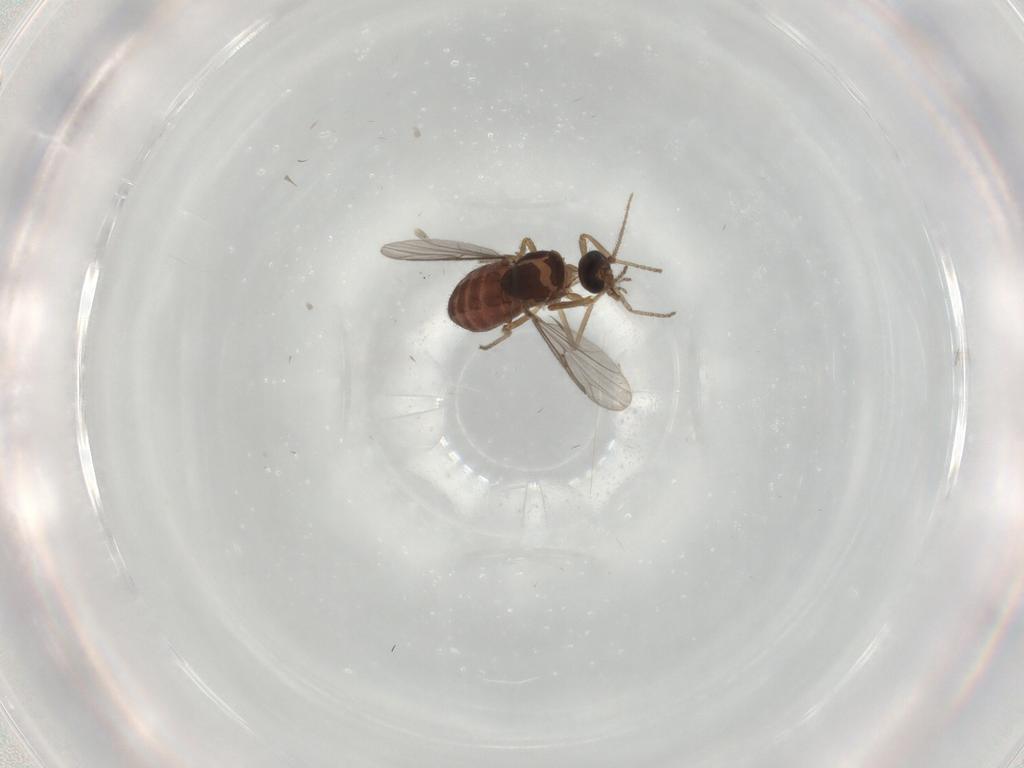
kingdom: Animalia
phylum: Arthropoda
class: Insecta
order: Diptera
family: Ceratopogonidae
